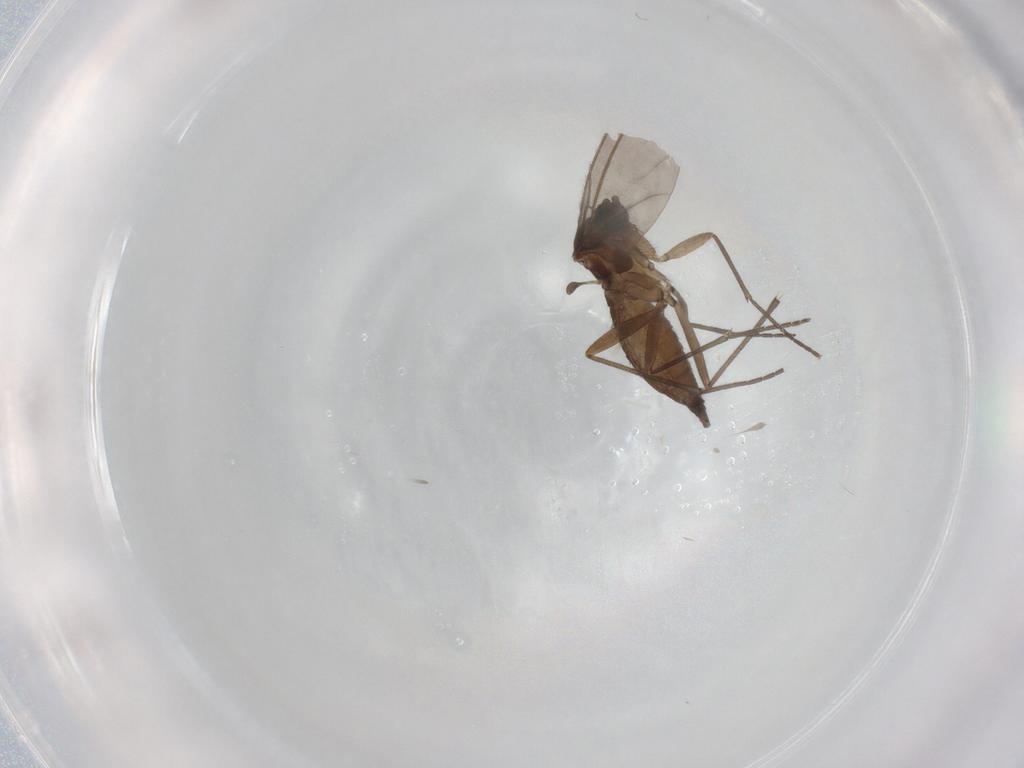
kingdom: Animalia
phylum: Arthropoda
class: Insecta
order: Diptera
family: Sciaridae
